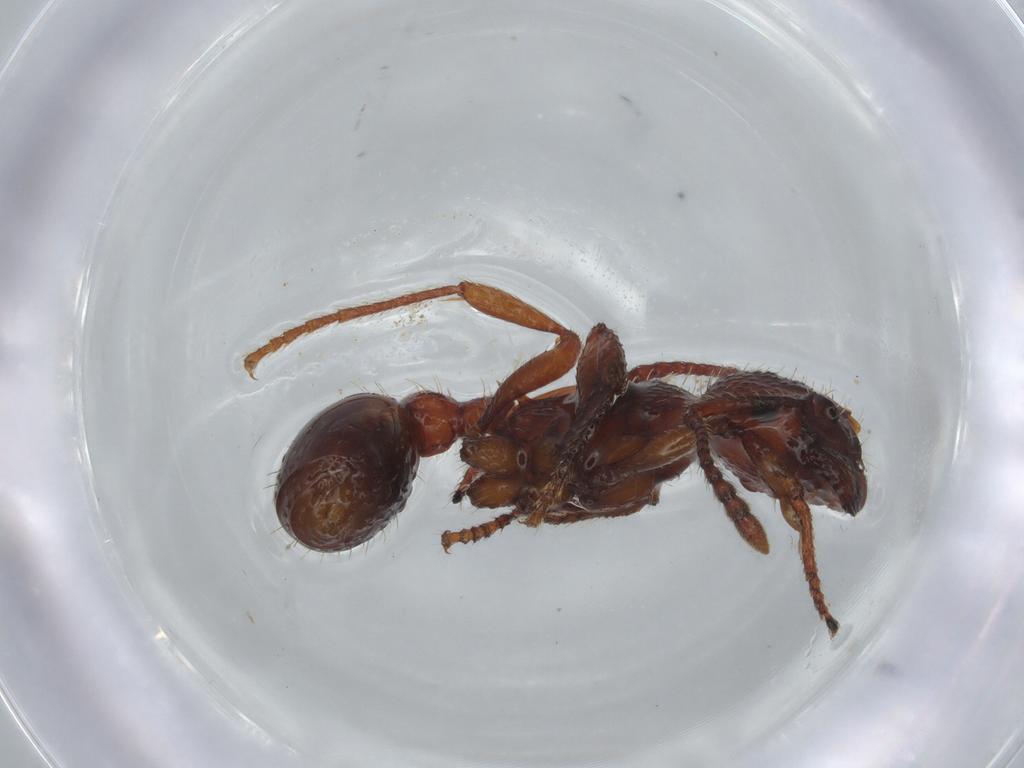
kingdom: Animalia
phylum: Arthropoda
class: Insecta
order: Hymenoptera
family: Formicidae
